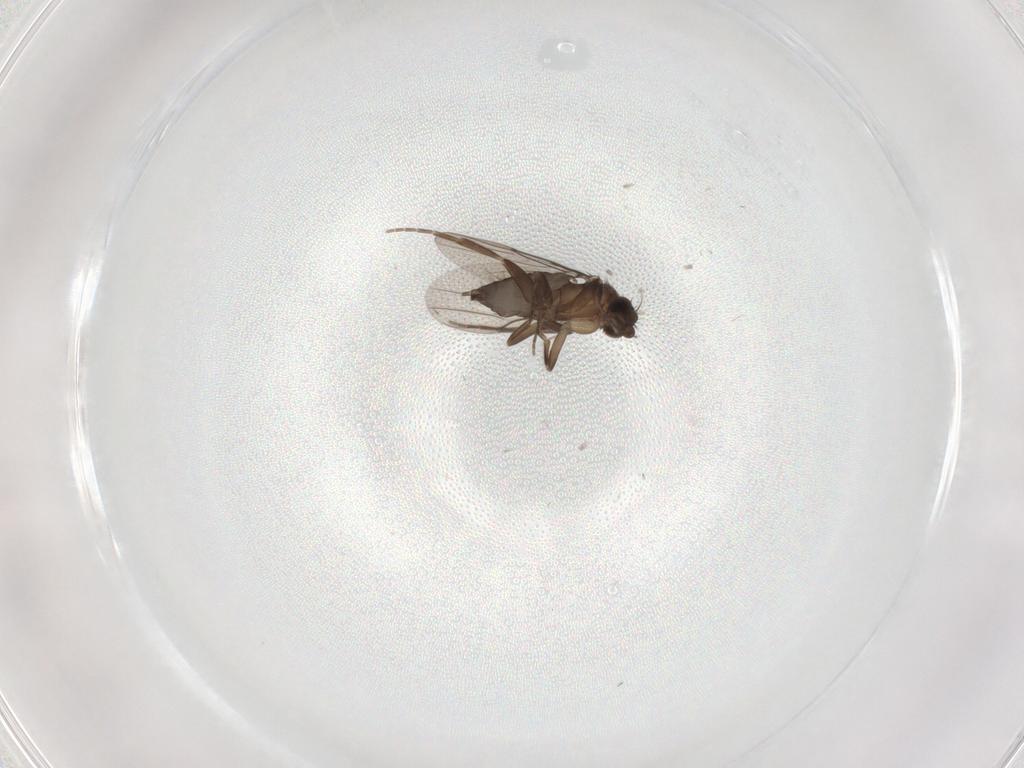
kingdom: Animalia
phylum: Arthropoda
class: Insecta
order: Diptera
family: Phoridae
